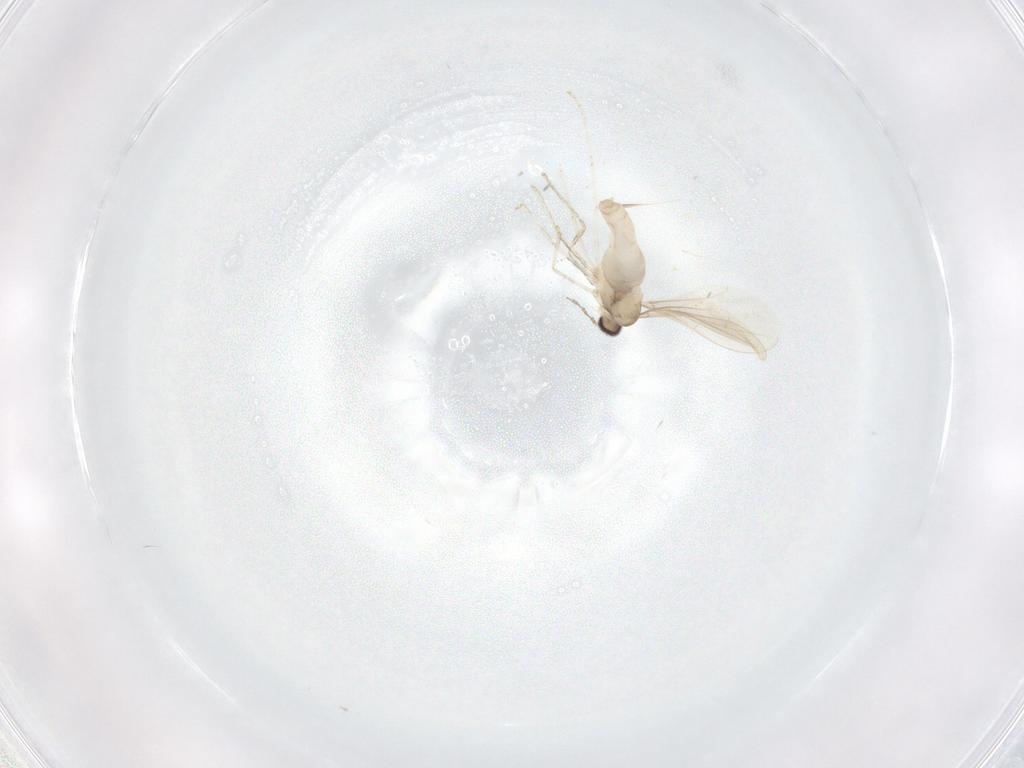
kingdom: Animalia
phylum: Arthropoda
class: Insecta
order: Diptera
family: Cecidomyiidae
